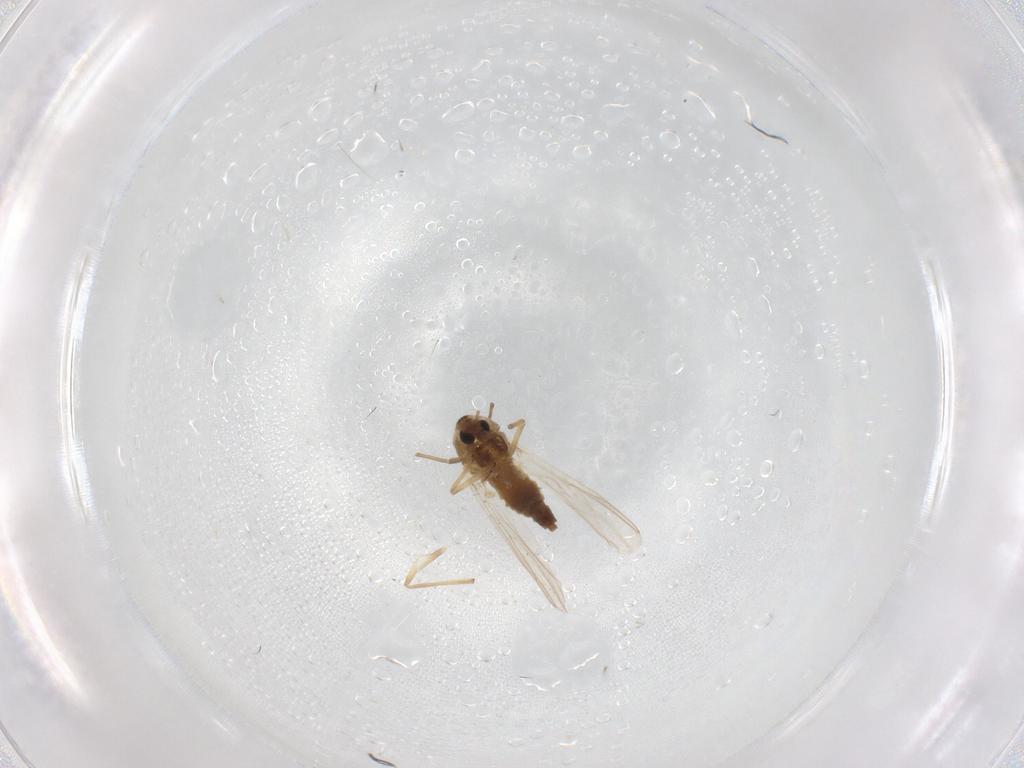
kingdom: Animalia
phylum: Arthropoda
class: Insecta
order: Diptera
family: Chironomidae
